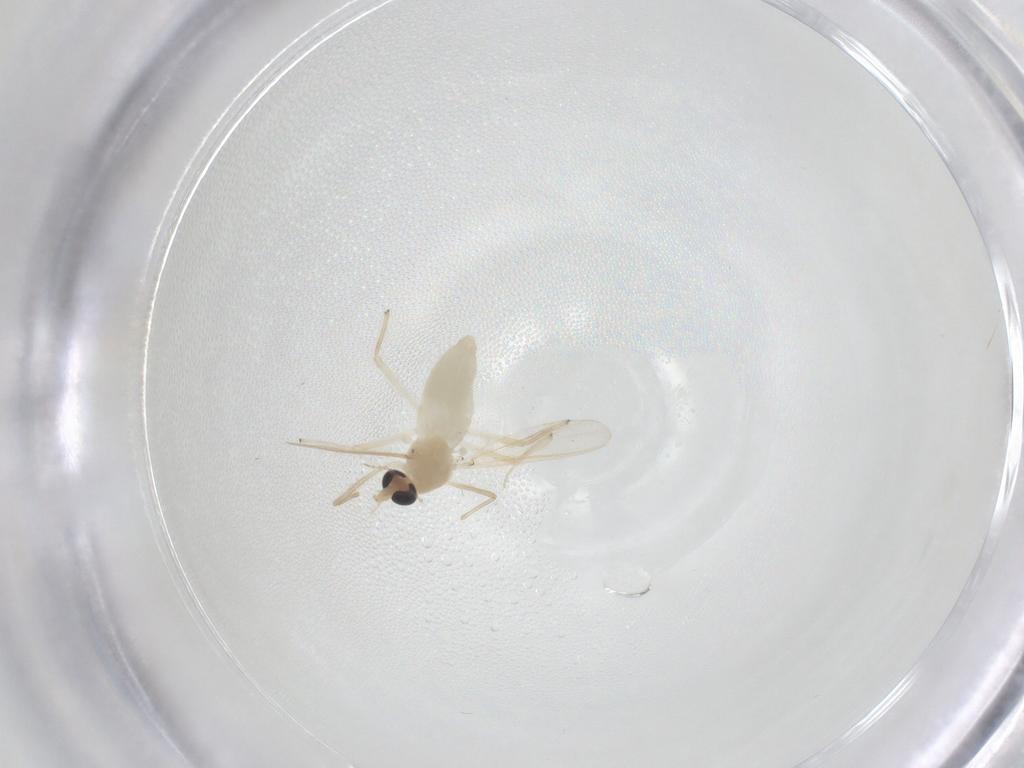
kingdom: Animalia
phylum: Arthropoda
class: Insecta
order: Diptera
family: Chironomidae
